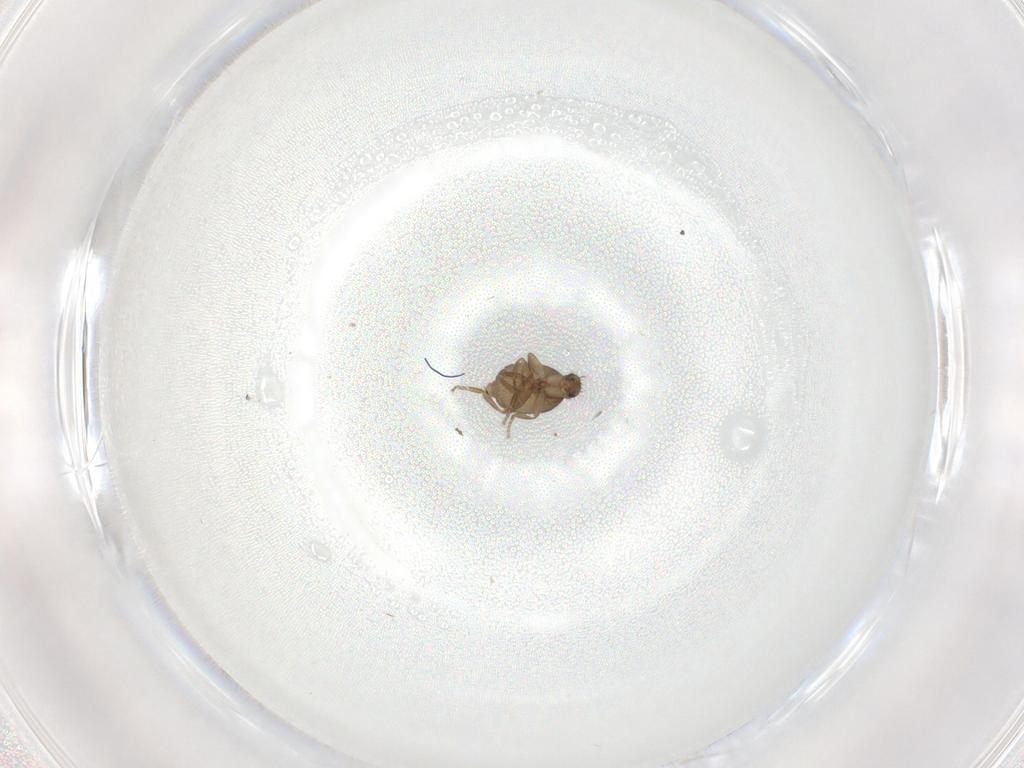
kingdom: Animalia
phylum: Arthropoda
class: Insecta
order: Diptera
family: Phoridae
